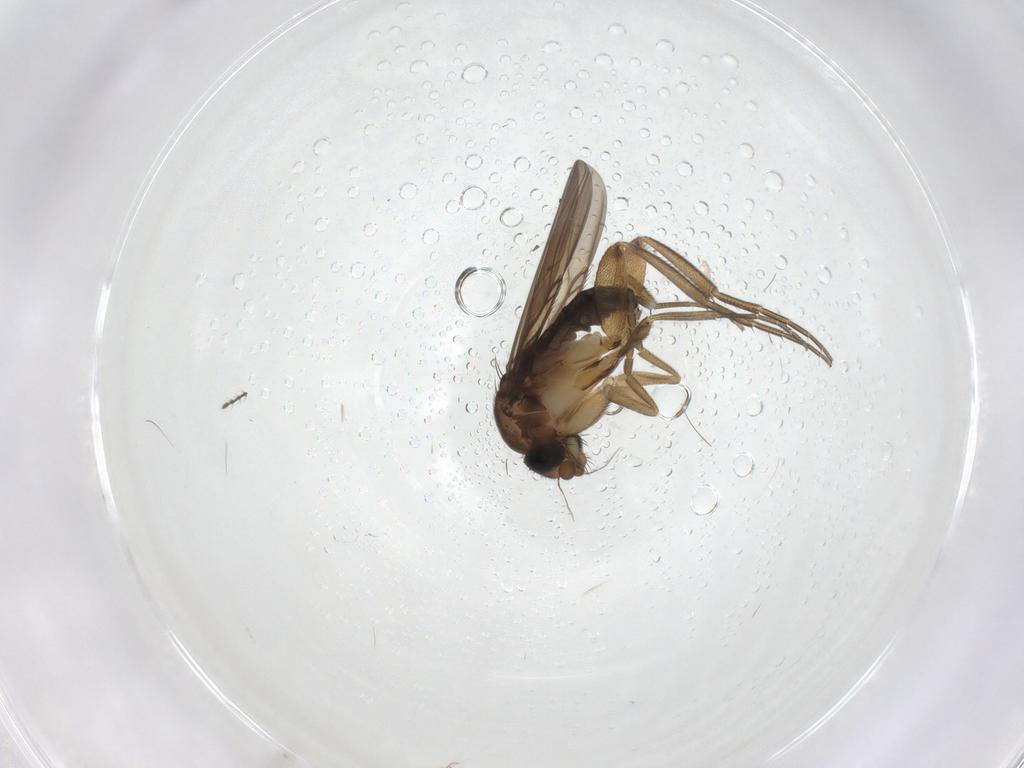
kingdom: Animalia
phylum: Arthropoda
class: Insecta
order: Diptera
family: Phoridae
